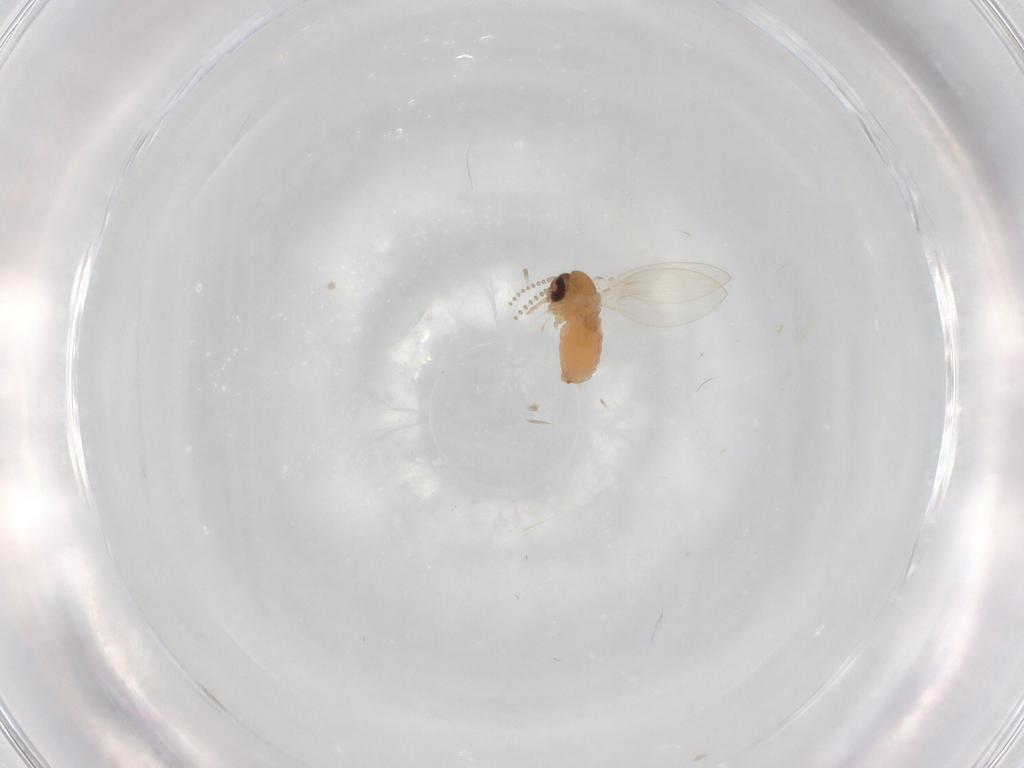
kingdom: Animalia
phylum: Arthropoda
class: Insecta
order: Diptera
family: Psychodidae
